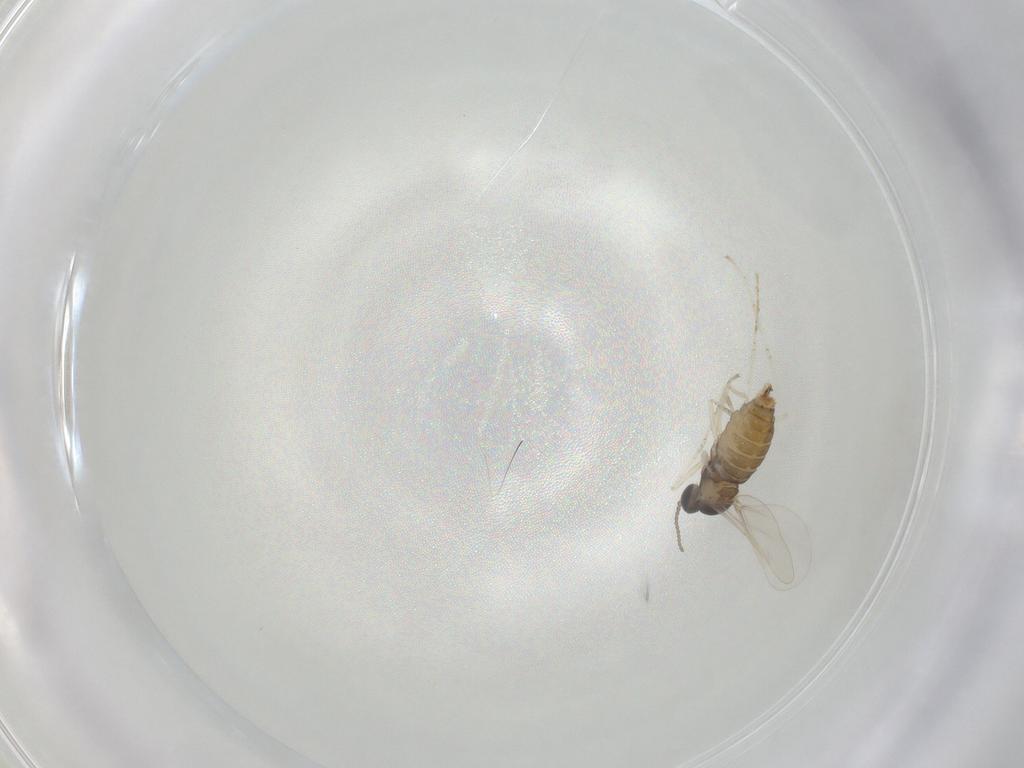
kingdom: Animalia
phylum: Arthropoda
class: Insecta
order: Diptera
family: Cecidomyiidae
